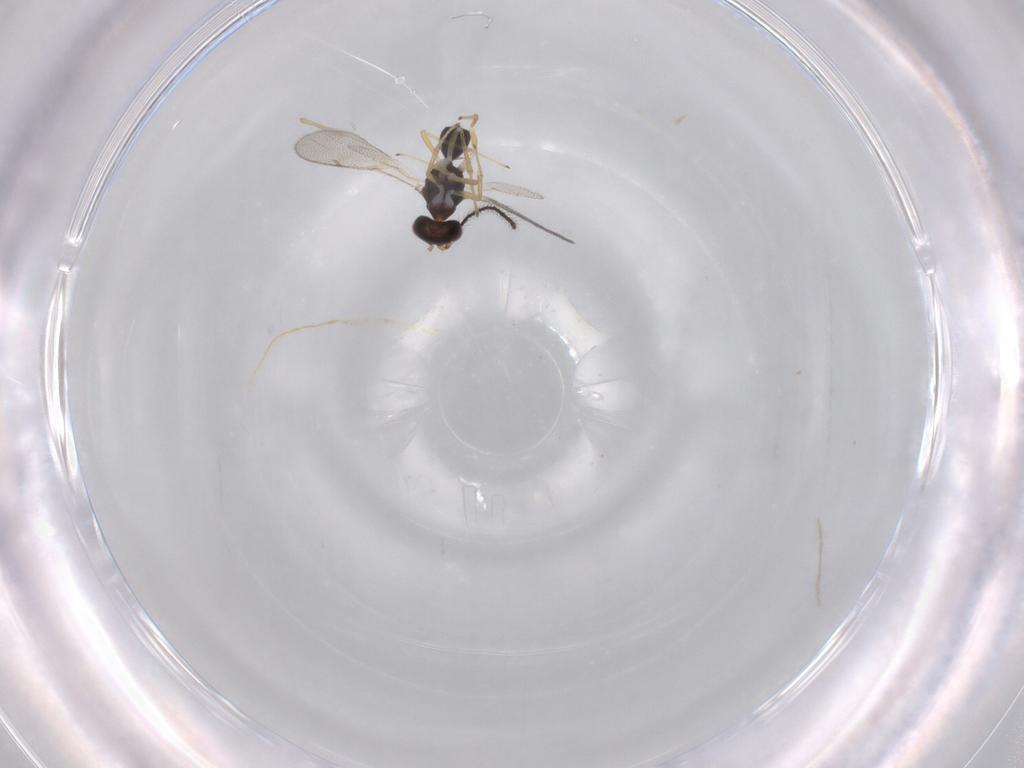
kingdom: Animalia
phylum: Arthropoda
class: Insecta
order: Hymenoptera
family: Diparidae
